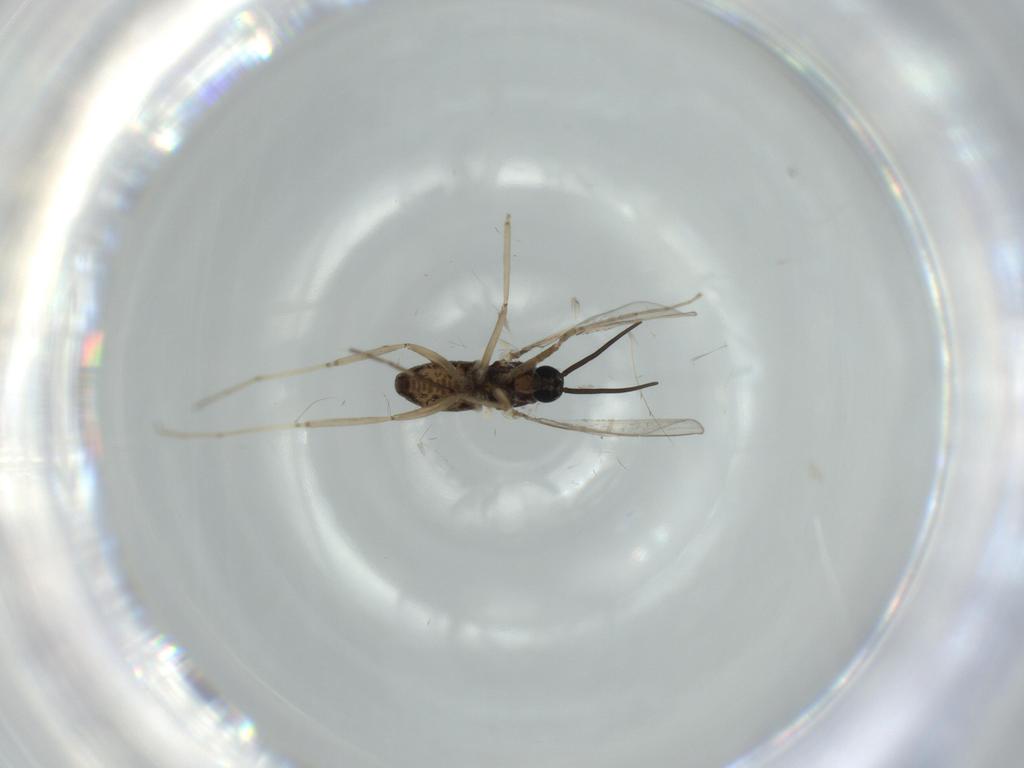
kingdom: Animalia
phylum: Arthropoda
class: Insecta
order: Diptera
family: Cecidomyiidae
